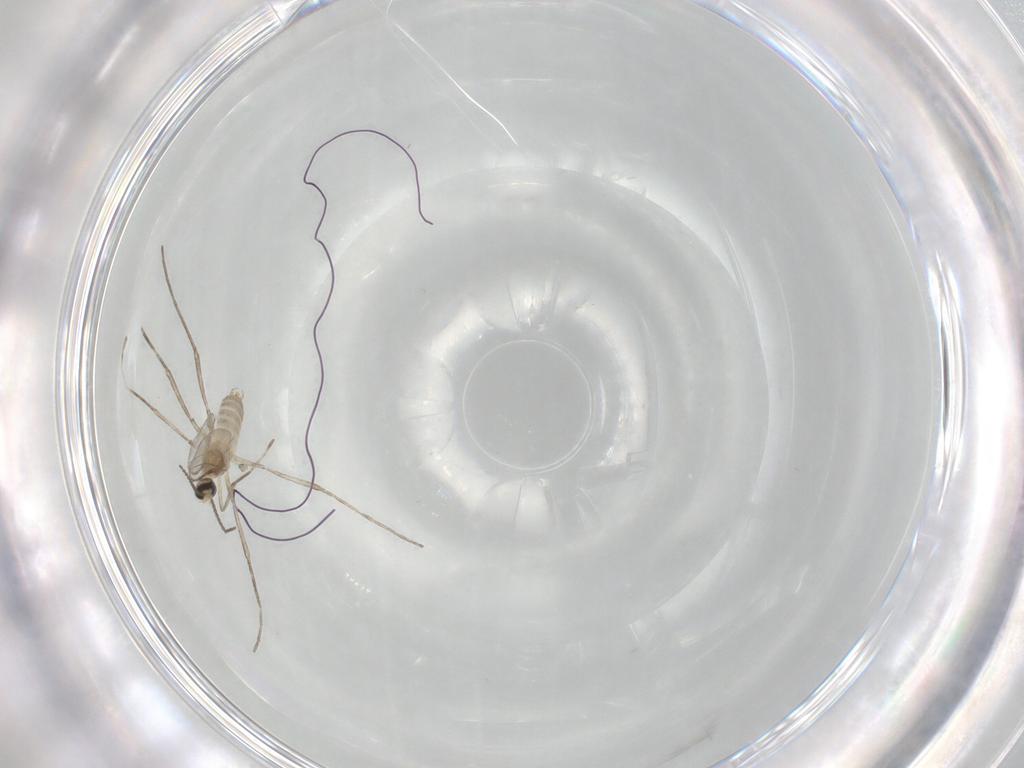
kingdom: Animalia
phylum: Arthropoda
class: Insecta
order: Diptera
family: Cecidomyiidae
